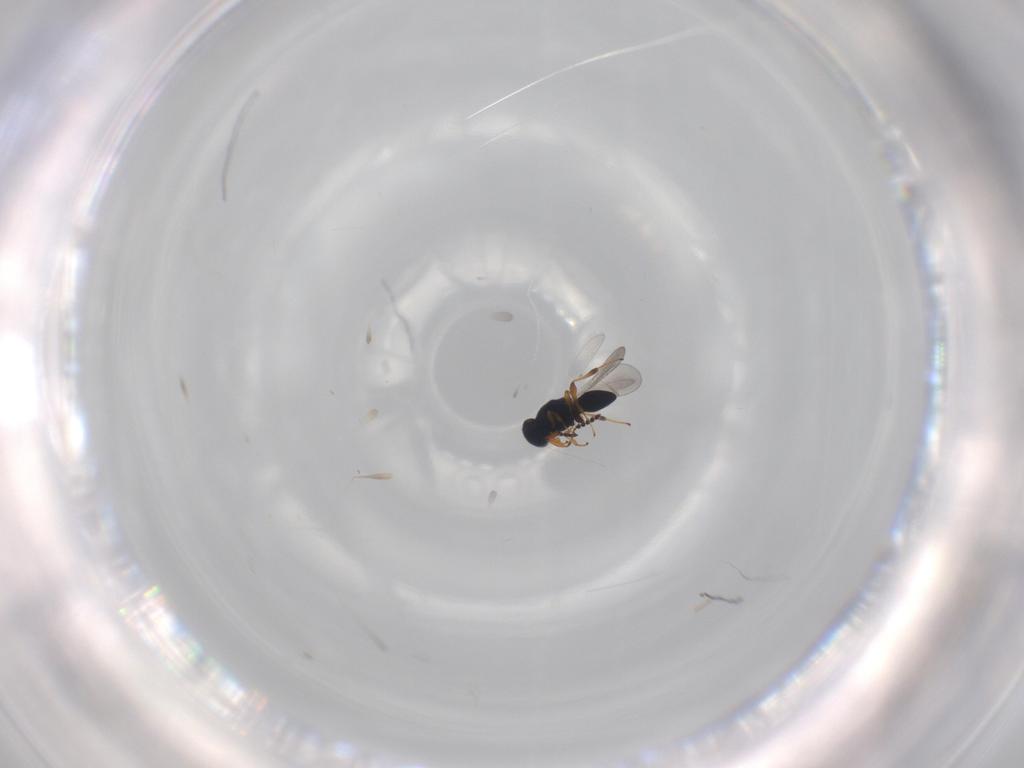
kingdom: Animalia
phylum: Arthropoda
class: Insecta
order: Hymenoptera
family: Platygastridae
